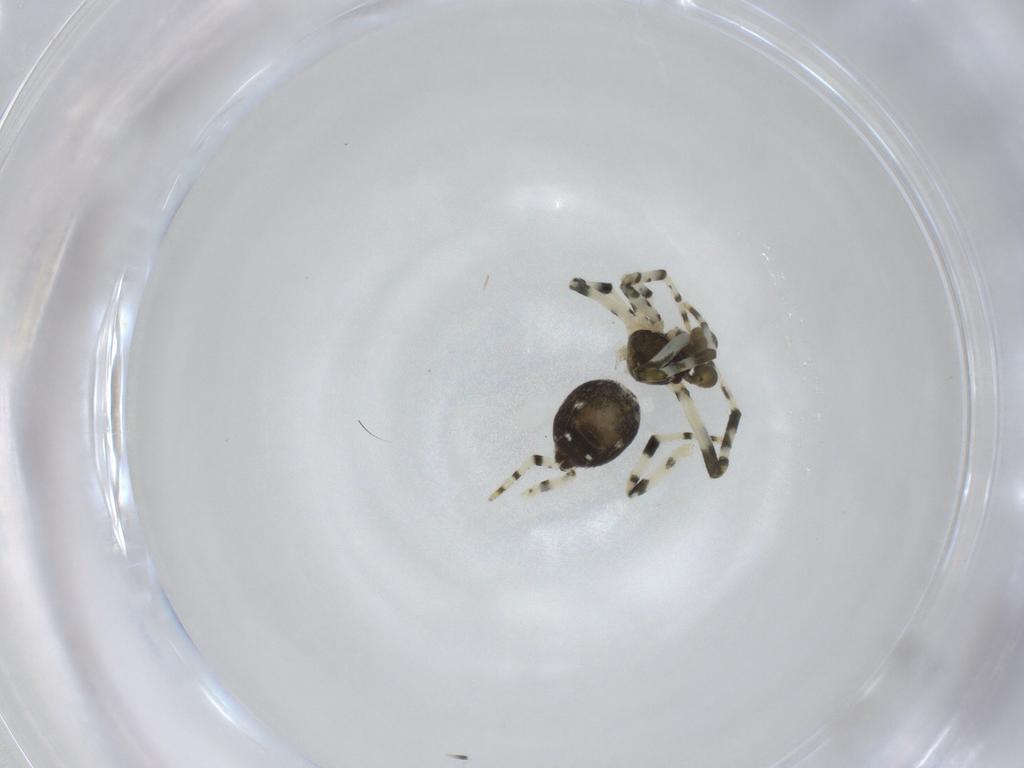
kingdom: Animalia
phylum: Arthropoda
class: Arachnida
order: Araneae
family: Theridiidae
